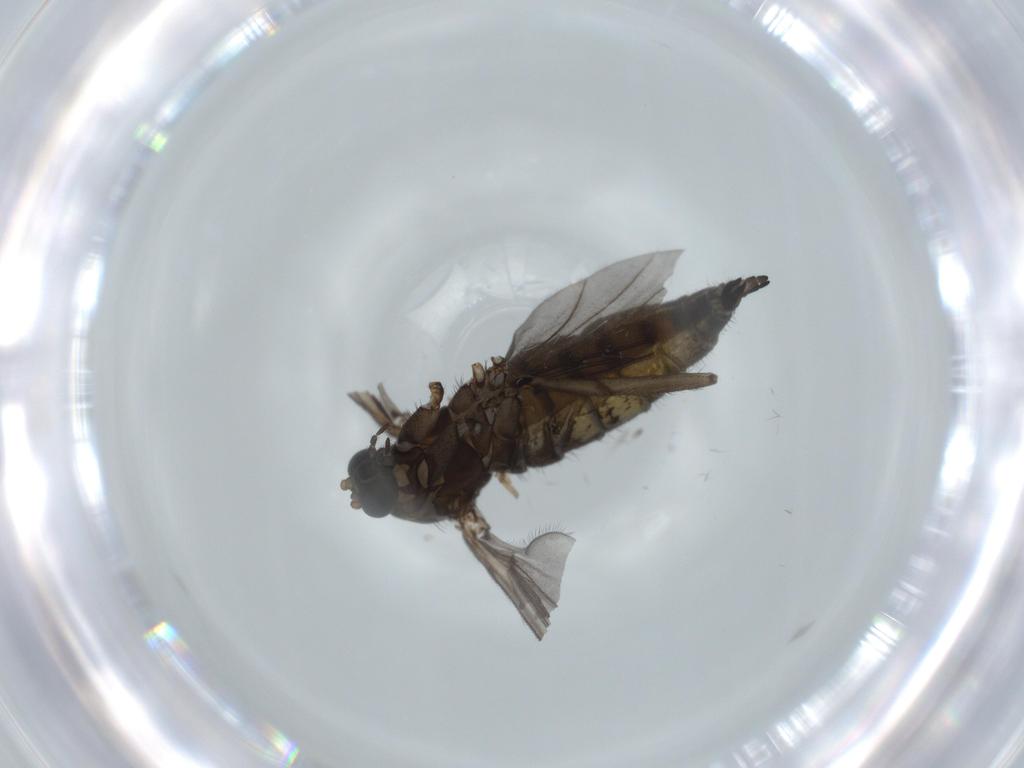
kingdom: Animalia
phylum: Arthropoda
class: Insecta
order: Diptera
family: Sciaridae
